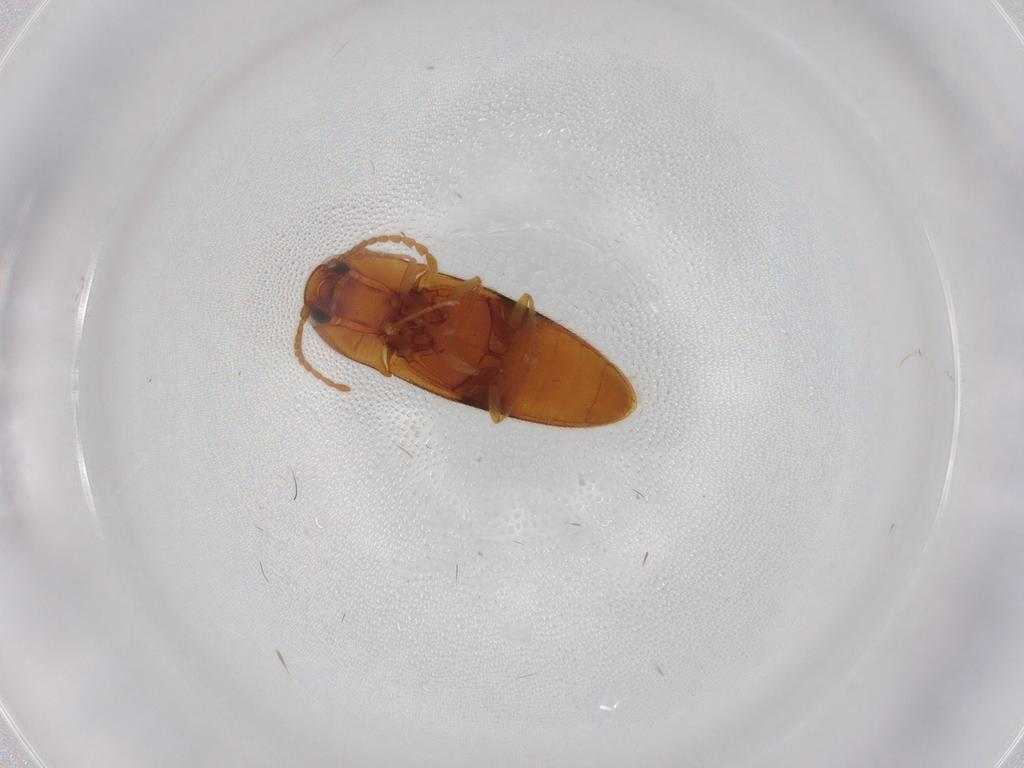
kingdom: Animalia
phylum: Arthropoda
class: Insecta
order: Coleoptera
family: Elateridae
